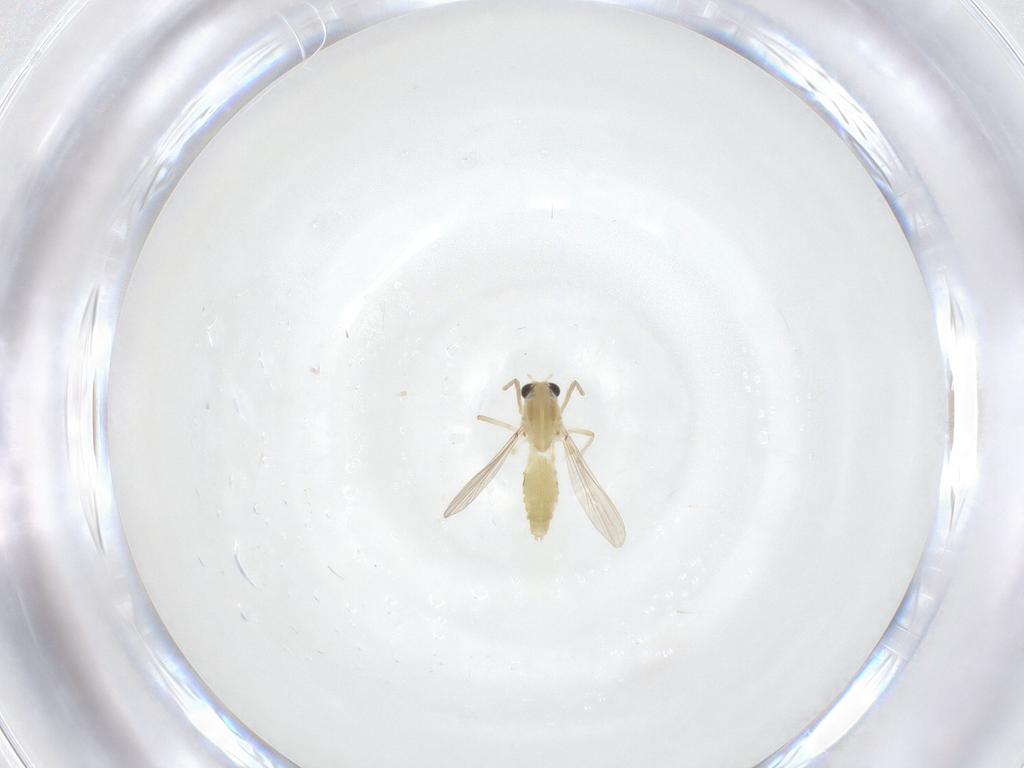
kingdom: Animalia
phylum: Arthropoda
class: Insecta
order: Diptera
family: Chironomidae
